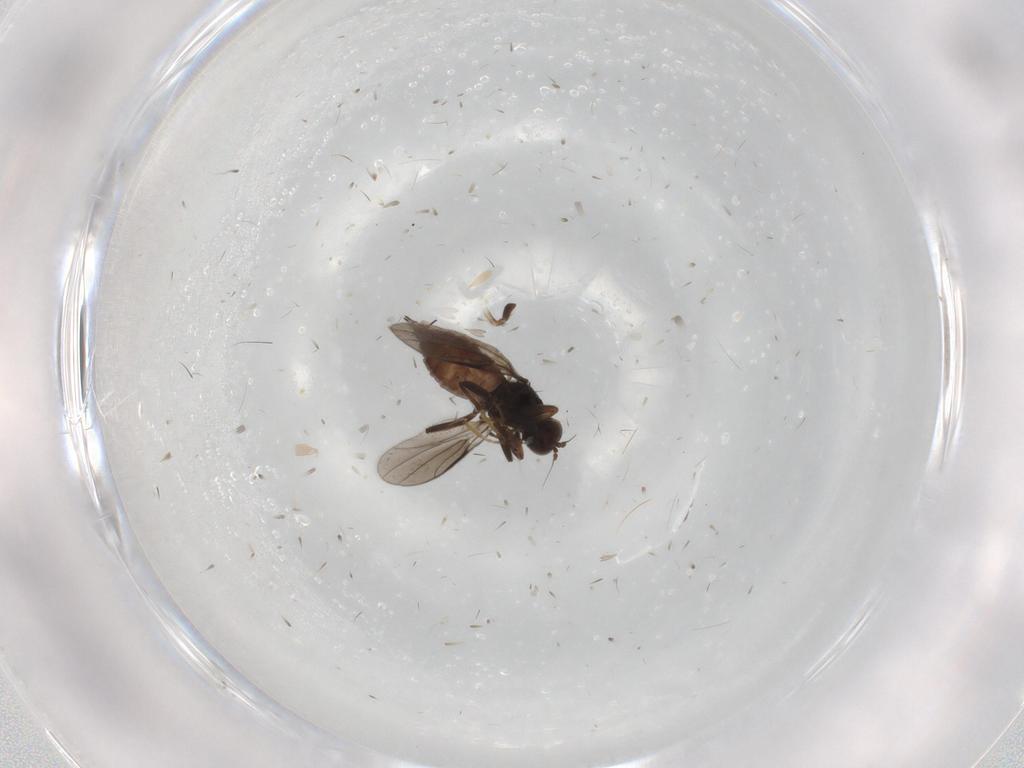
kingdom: Animalia
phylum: Arthropoda
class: Insecta
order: Diptera
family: Hybotidae
